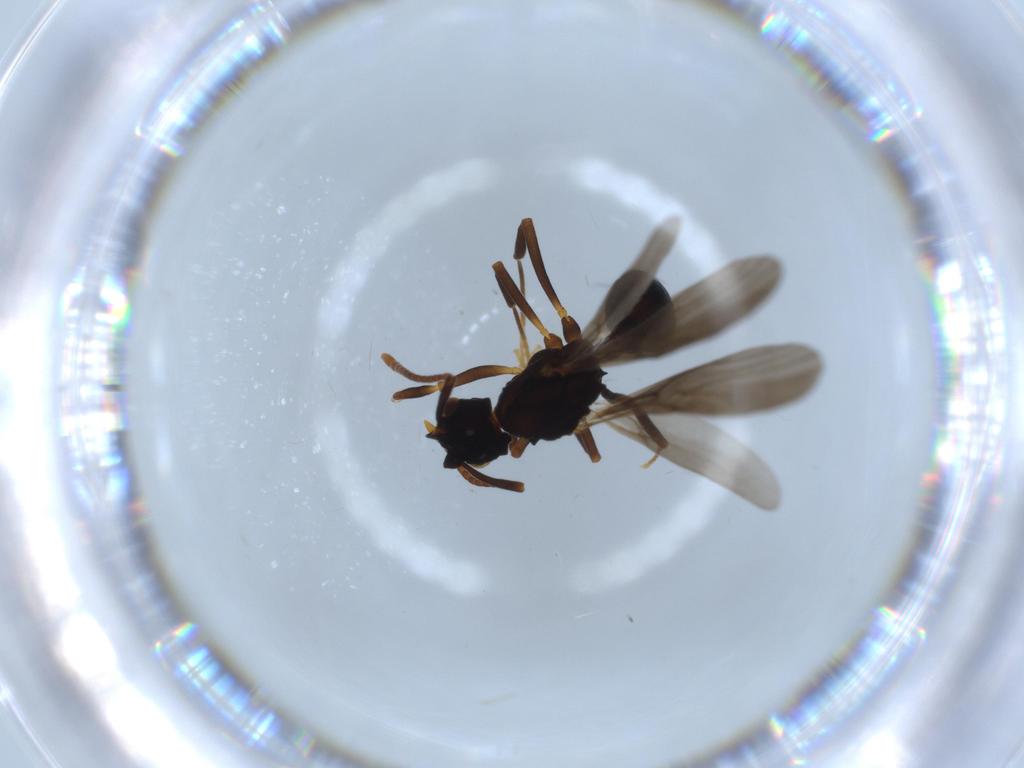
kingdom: Animalia
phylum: Arthropoda
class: Insecta
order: Hymenoptera
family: Formicidae
